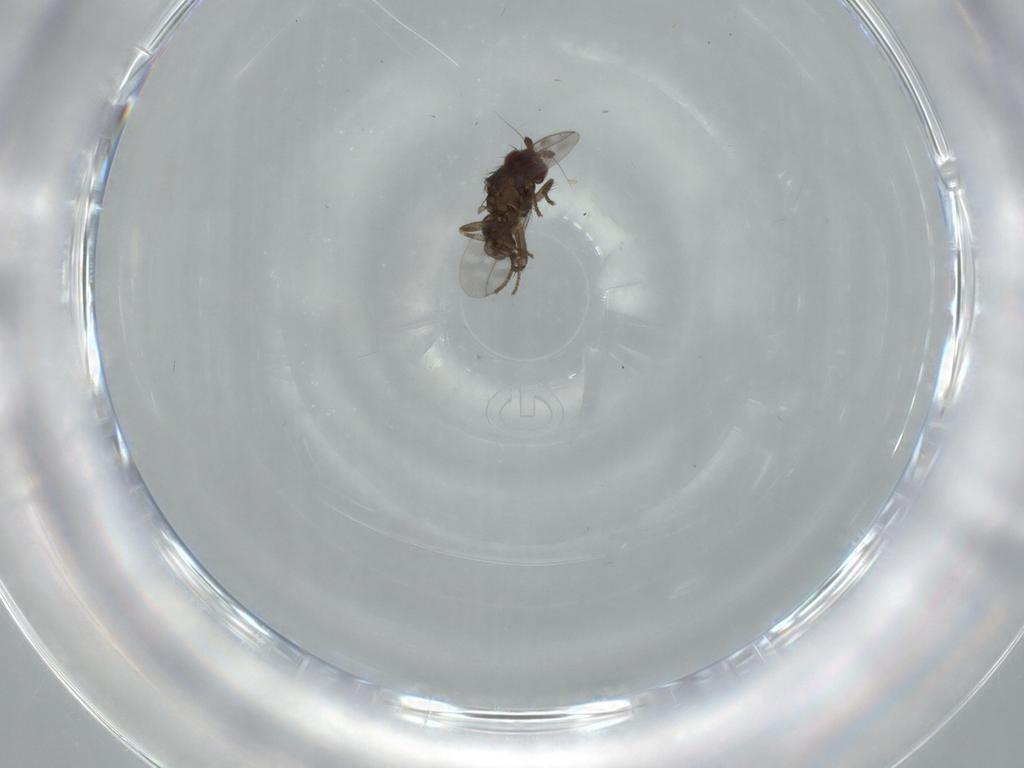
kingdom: Animalia
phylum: Arthropoda
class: Insecta
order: Diptera
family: Sphaeroceridae
